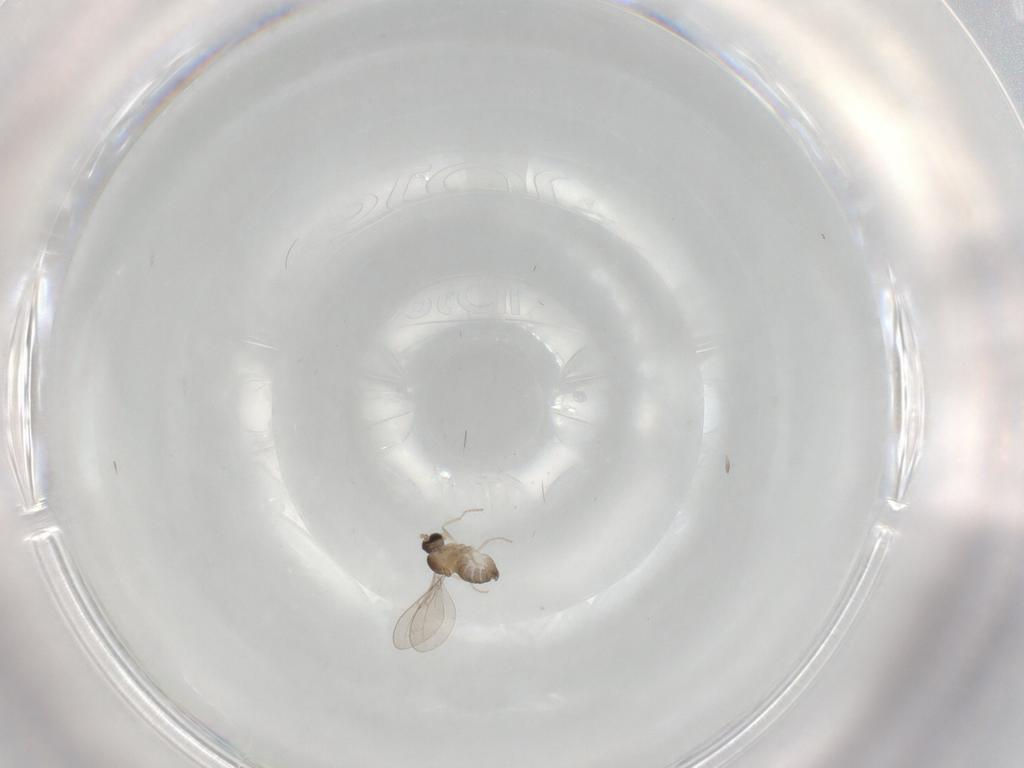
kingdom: Animalia
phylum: Arthropoda
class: Insecta
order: Diptera
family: Cecidomyiidae
